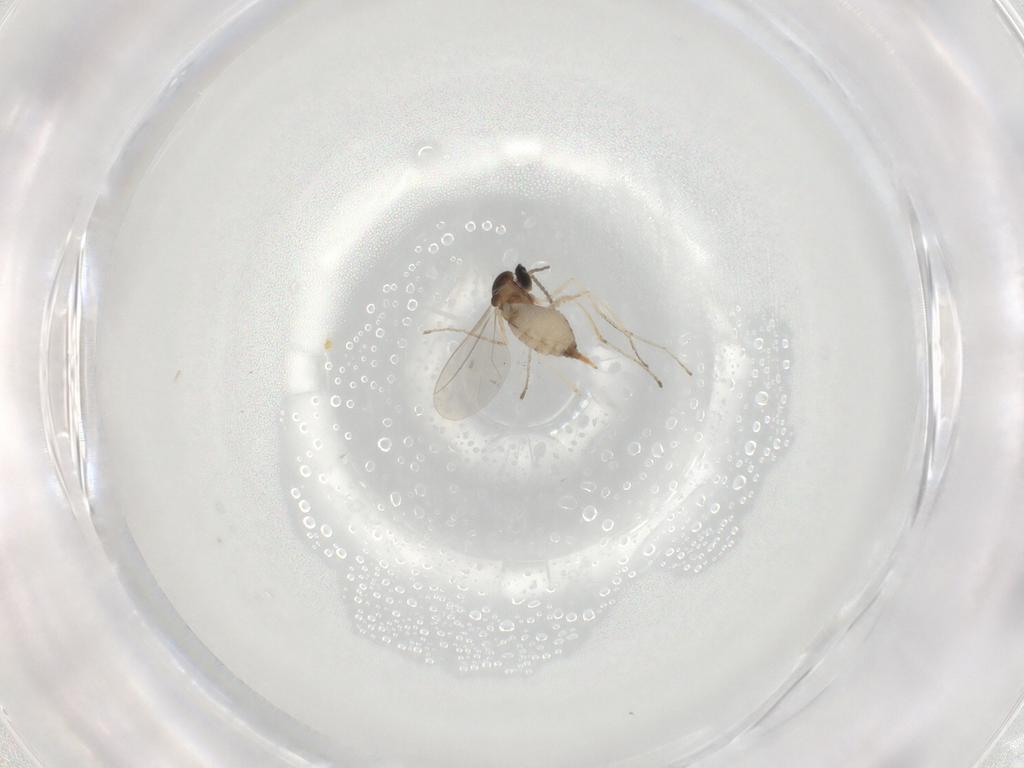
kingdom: Animalia
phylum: Arthropoda
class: Insecta
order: Diptera
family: Cecidomyiidae
